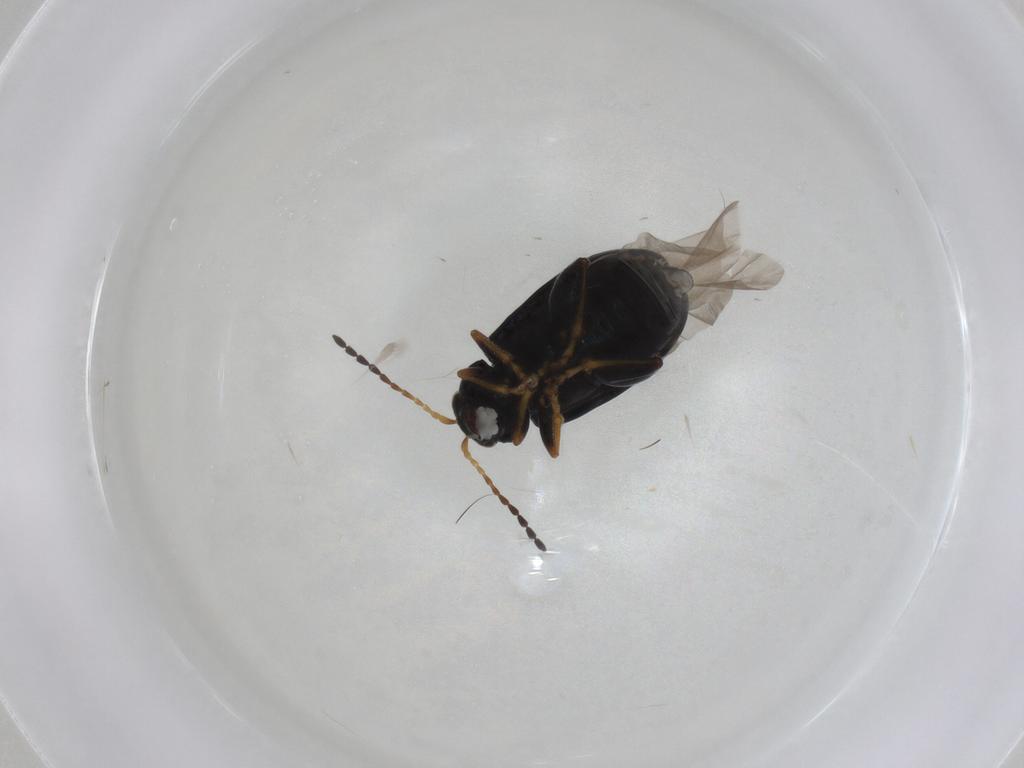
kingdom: Animalia
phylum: Arthropoda
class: Insecta
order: Coleoptera
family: Chrysomelidae
